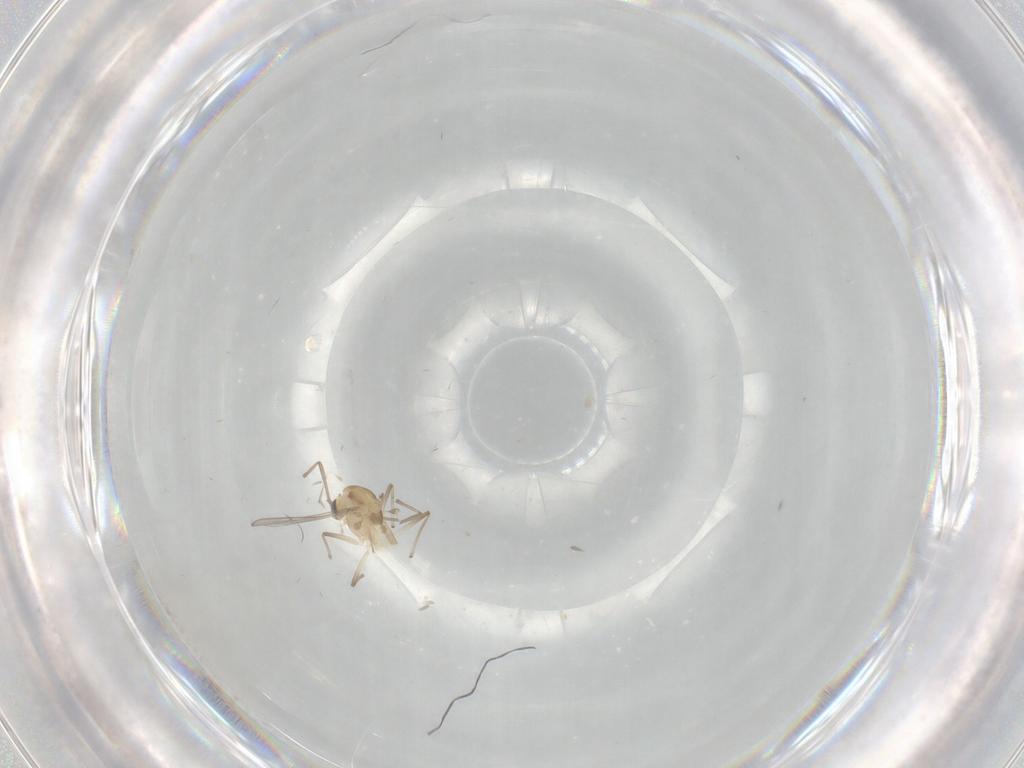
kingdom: Animalia
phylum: Arthropoda
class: Insecta
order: Diptera
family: Chironomidae
